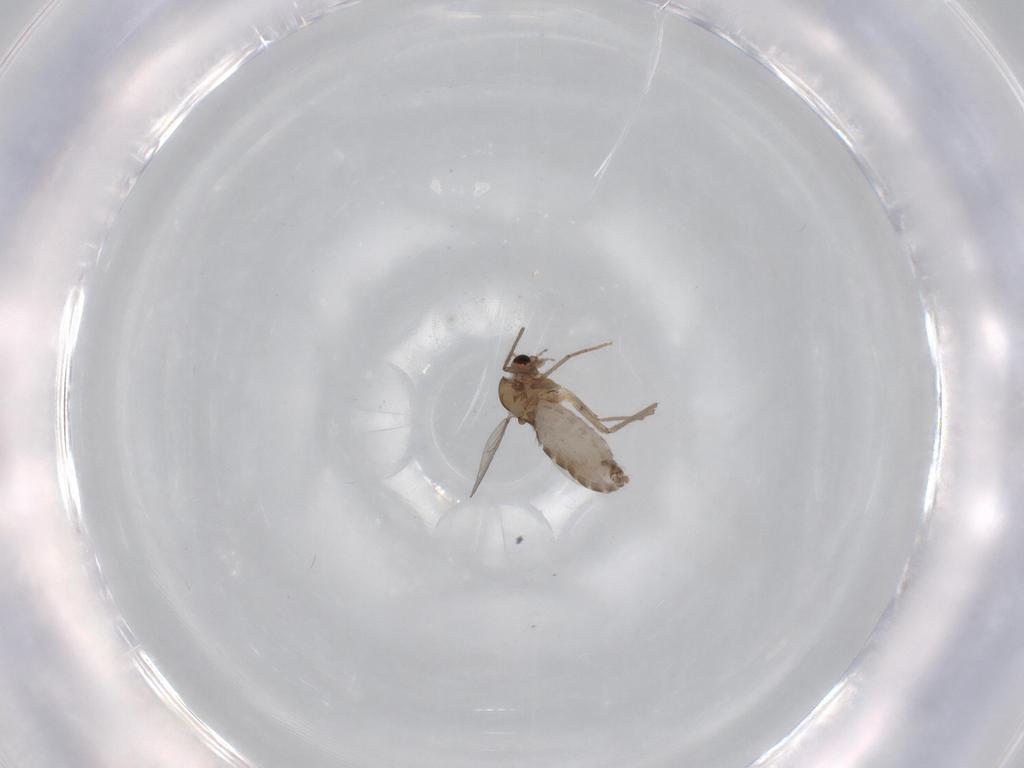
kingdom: Animalia
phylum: Arthropoda
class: Insecta
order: Diptera
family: Chironomidae
